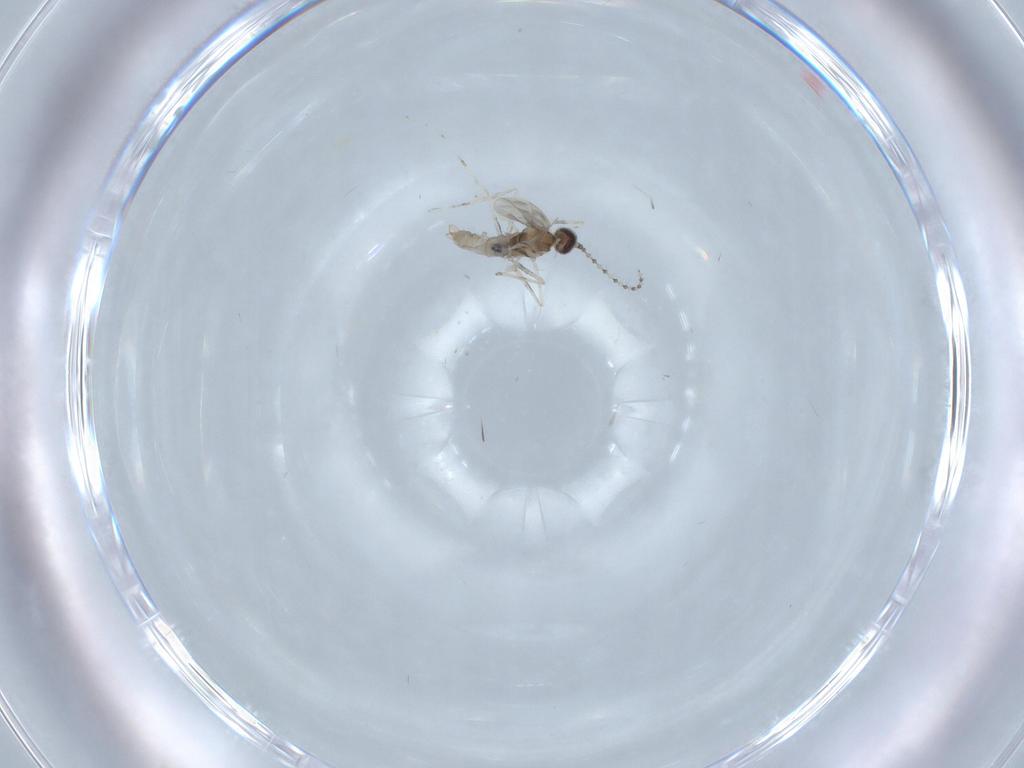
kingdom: Animalia
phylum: Arthropoda
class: Insecta
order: Diptera
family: Cecidomyiidae
